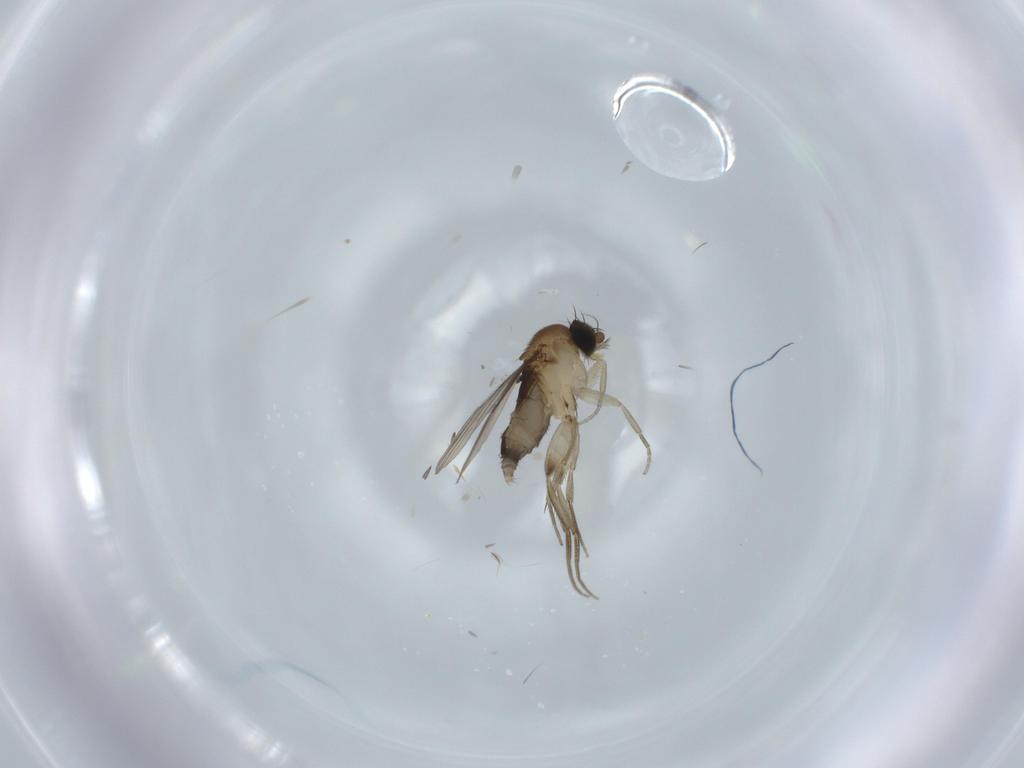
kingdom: Animalia
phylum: Arthropoda
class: Insecta
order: Diptera
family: Phoridae
